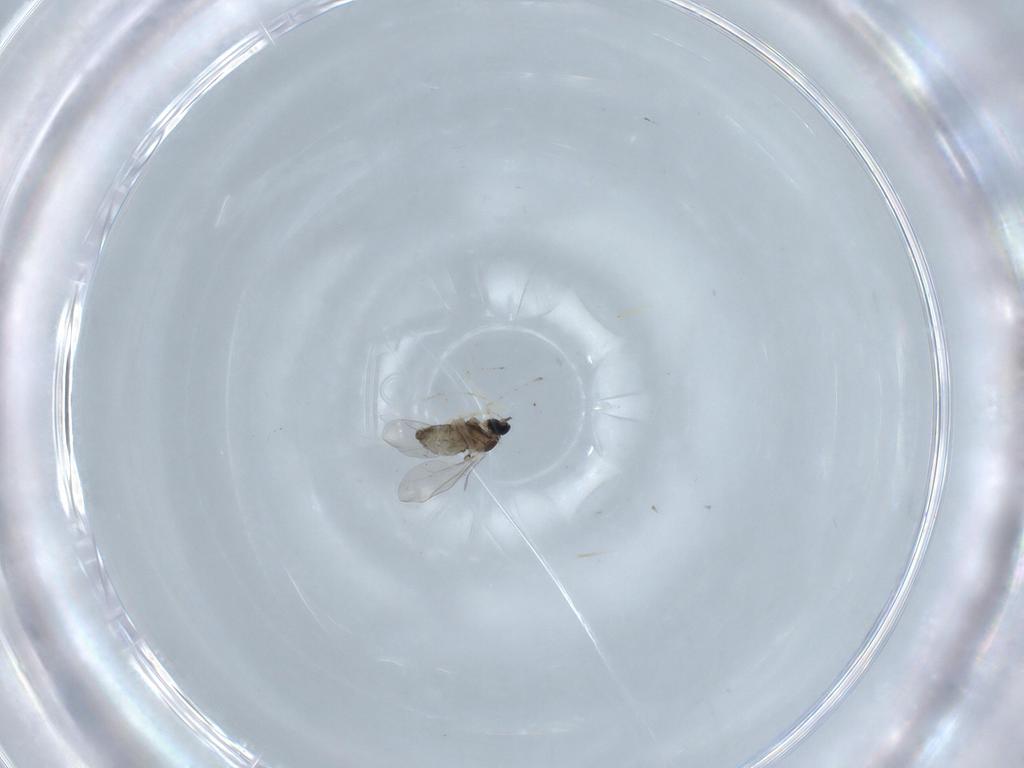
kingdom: Animalia
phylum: Arthropoda
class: Insecta
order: Diptera
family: Cecidomyiidae
